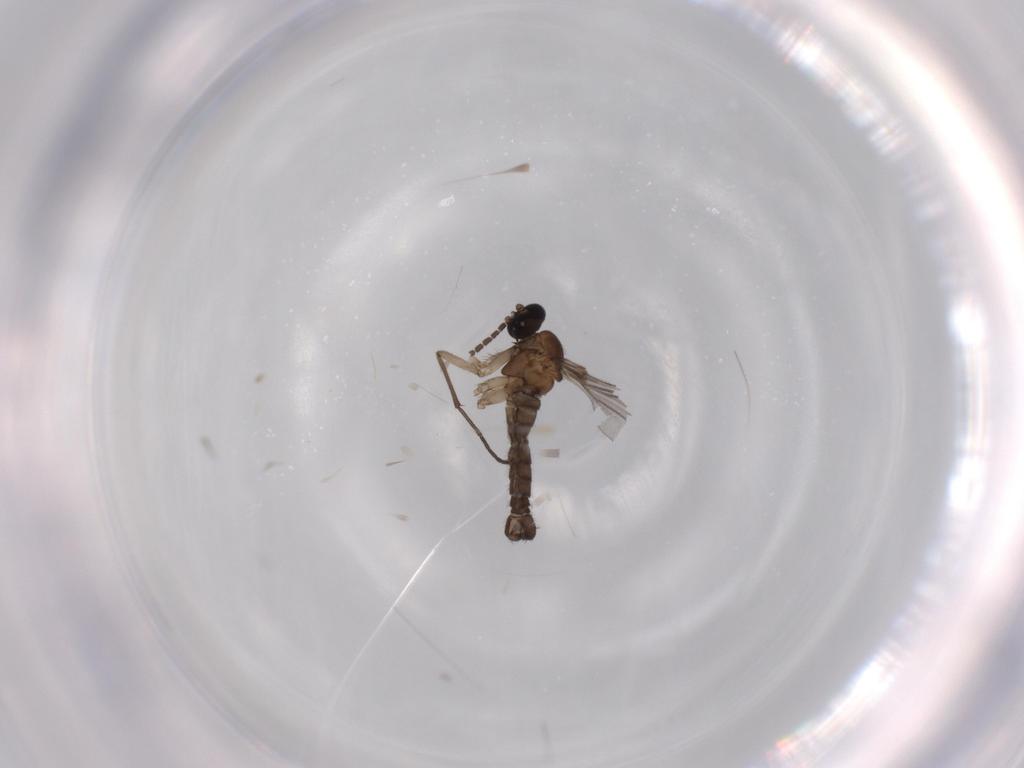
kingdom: Animalia
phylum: Arthropoda
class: Insecta
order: Diptera
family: Sciaridae
